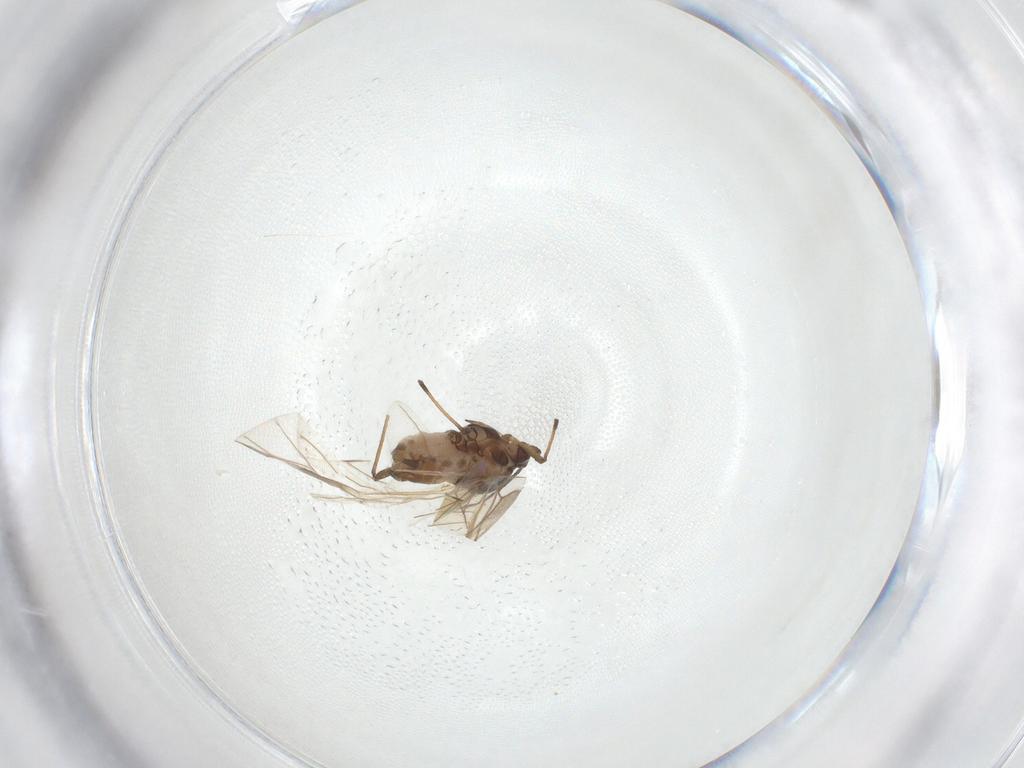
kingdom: Animalia
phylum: Arthropoda
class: Insecta
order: Hemiptera
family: Aphididae
